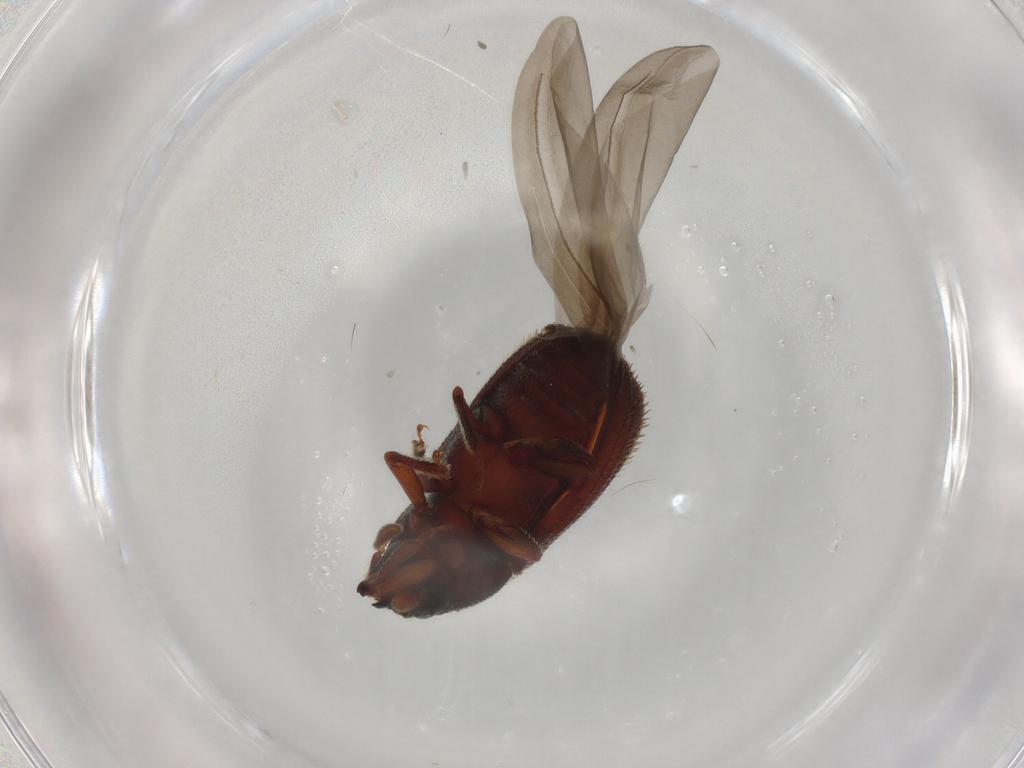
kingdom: Animalia
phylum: Arthropoda
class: Insecta
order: Coleoptera
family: Curculionidae
